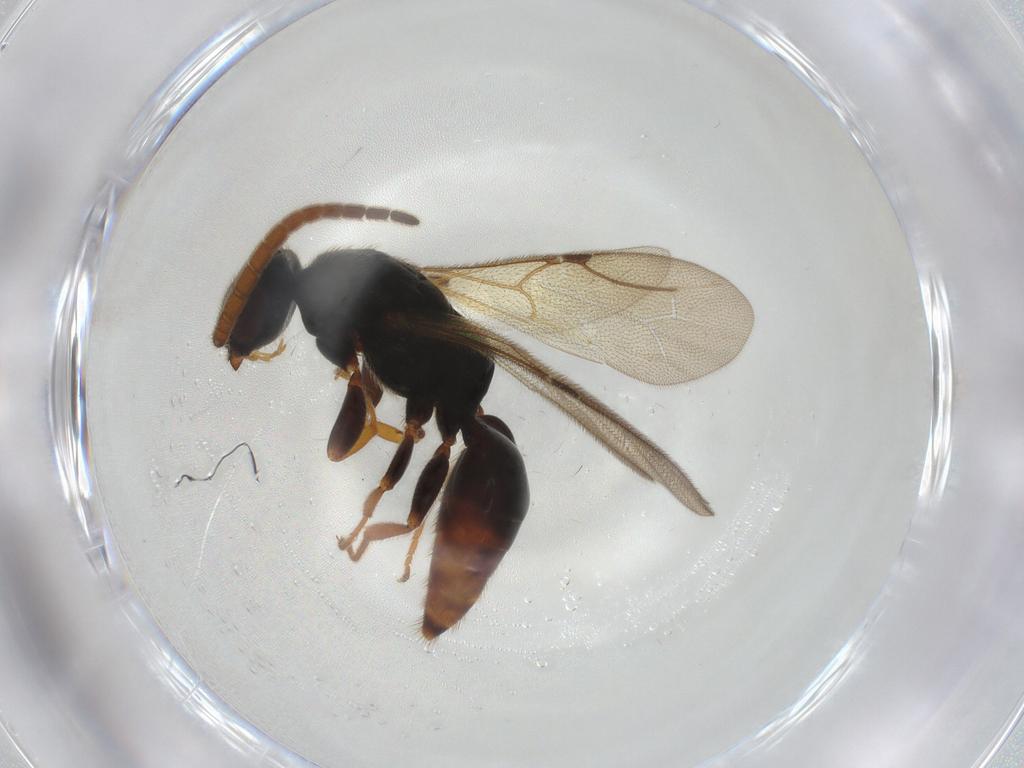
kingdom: Animalia
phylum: Arthropoda
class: Insecta
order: Hymenoptera
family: Bethylidae
